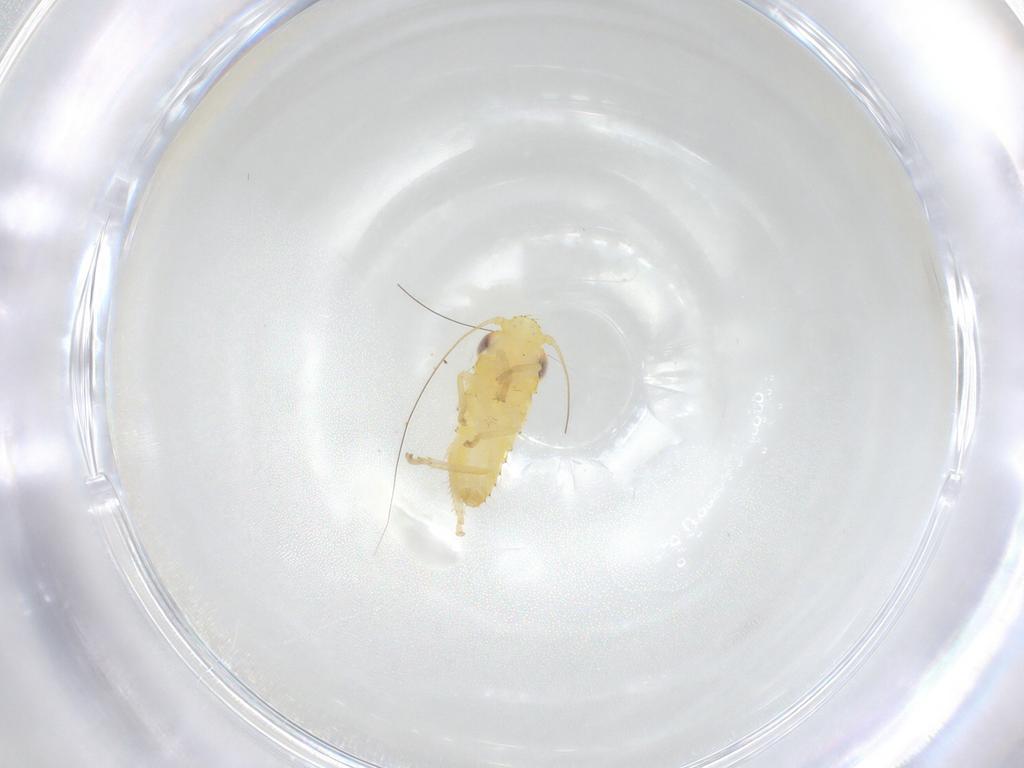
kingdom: Animalia
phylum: Arthropoda
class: Insecta
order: Hemiptera
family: Cicadellidae
